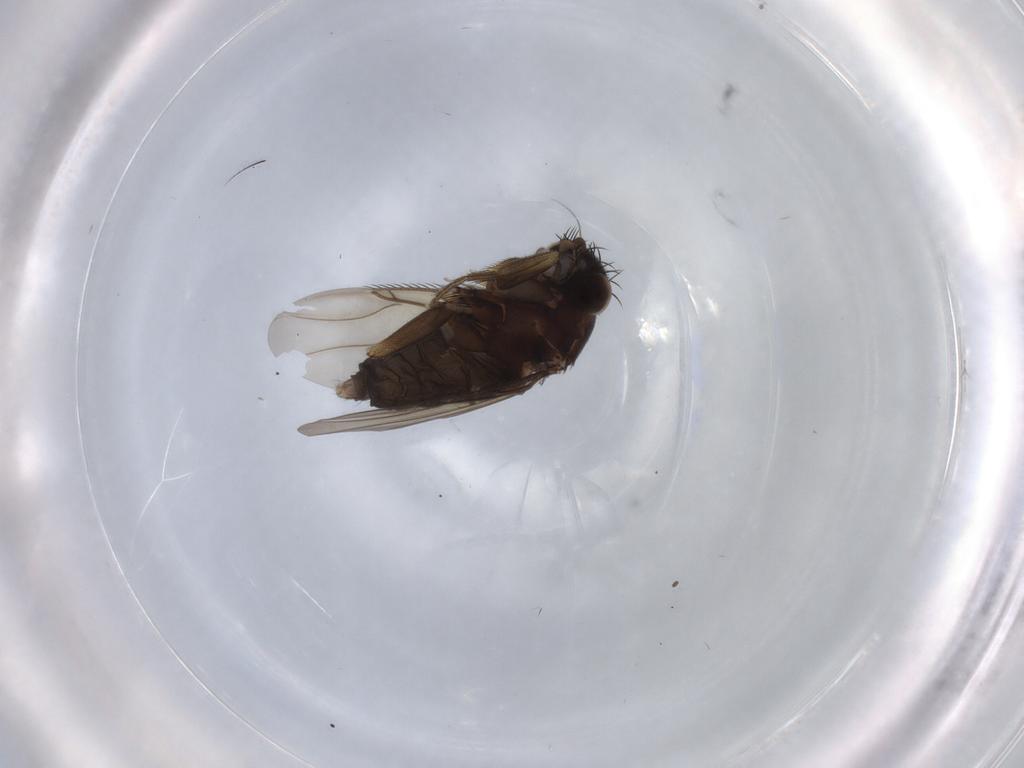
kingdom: Animalia
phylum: Arthropoda
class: Insecta
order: Diptera
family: Phoridae
